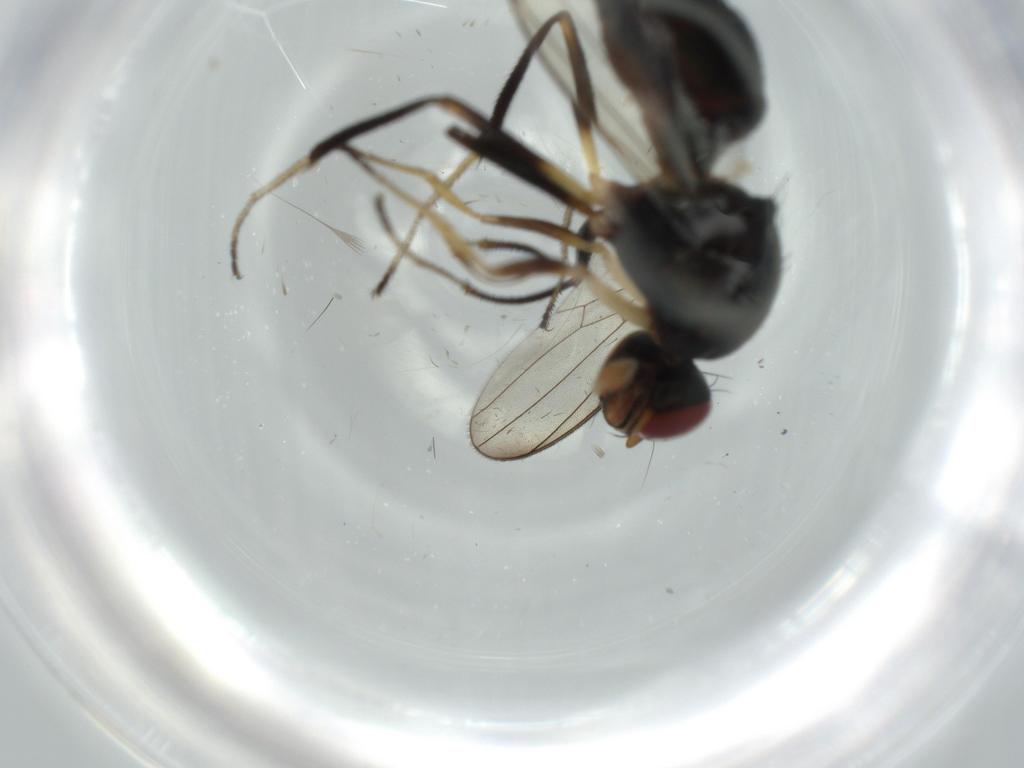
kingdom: Animalia
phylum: Arthropoda
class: Insecta
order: Diptera
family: Sepsidae
